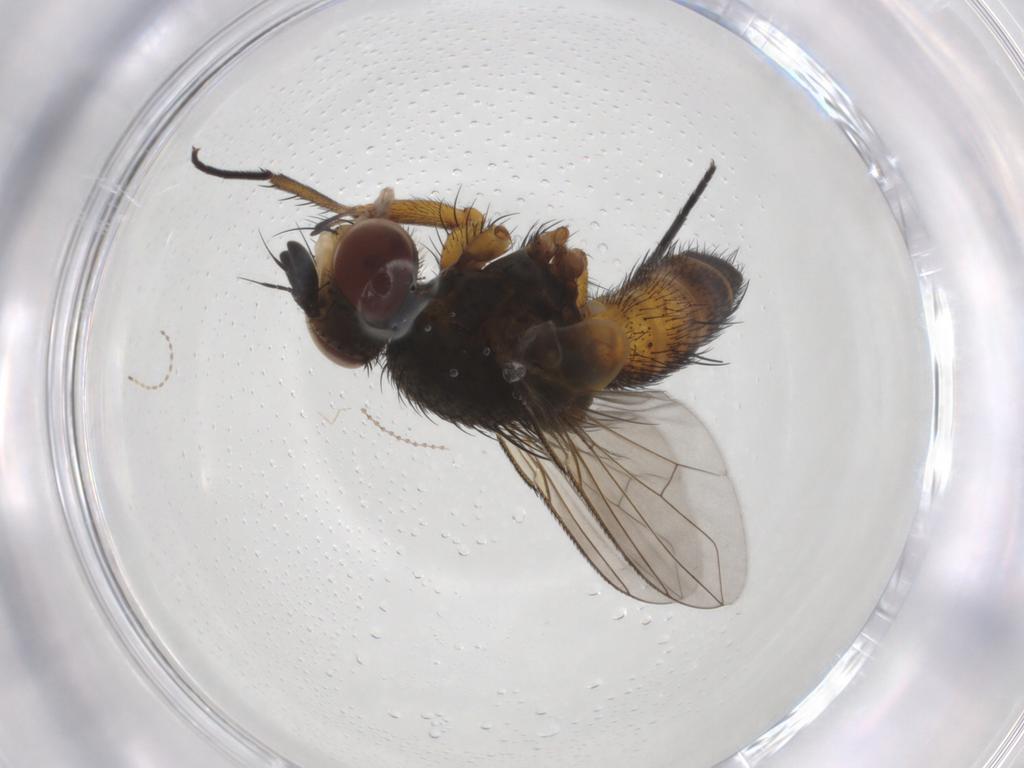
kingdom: Animalia
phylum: Arthropoda
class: Insecta
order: Diptera
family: Tachinidae
